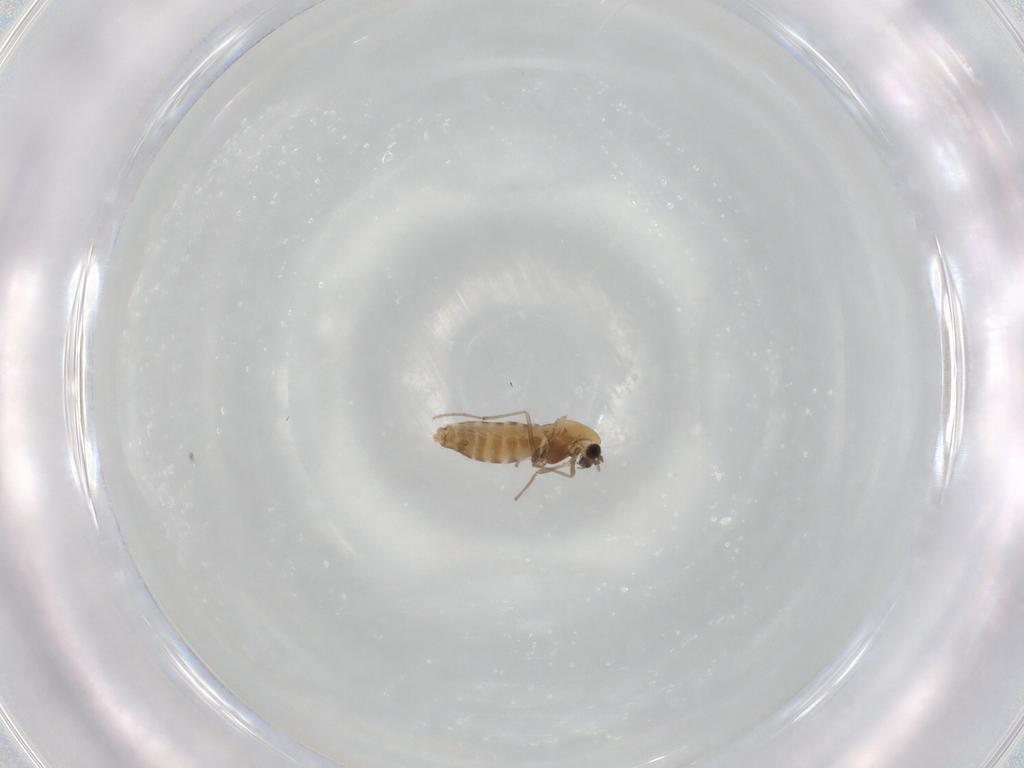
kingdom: Animalia
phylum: Arthropoda
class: Insecta
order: Diptera
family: Chironomidae
